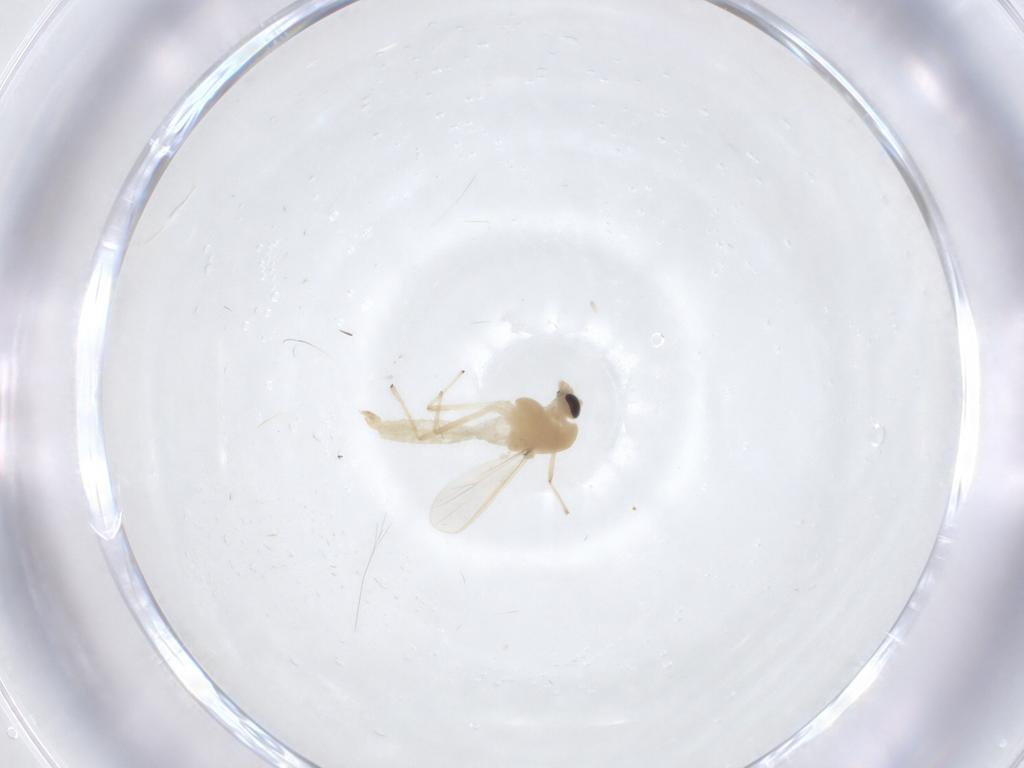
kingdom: Animalia
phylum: Arthropoda
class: Insecta
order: Diptera
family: Chironomidae
